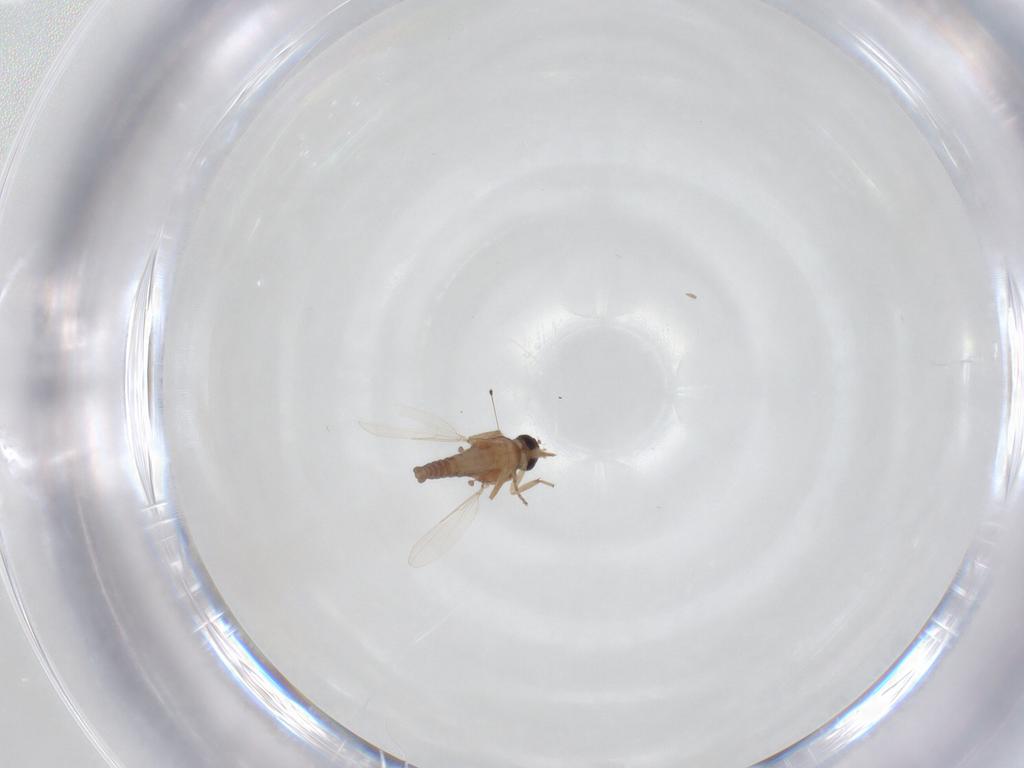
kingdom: Animalia
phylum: Arthropoda
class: Insecta
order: Diptera
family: Ceratopogonidae
